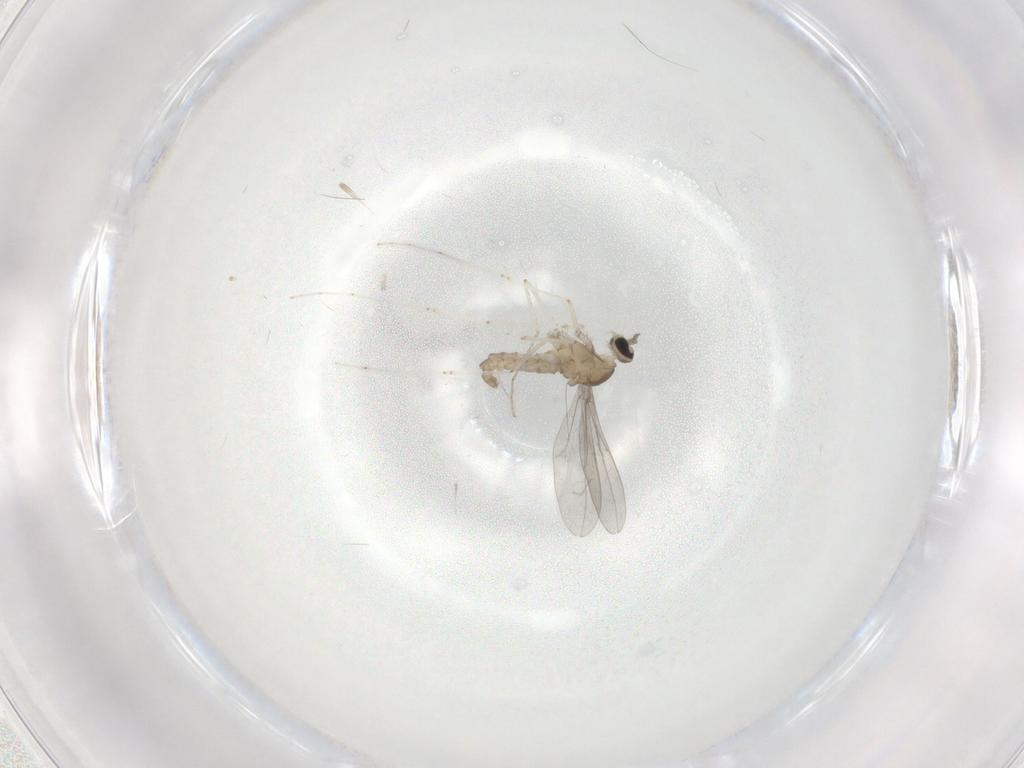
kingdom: Animalia
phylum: Arthropoda
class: Insecta
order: Diptera
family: Cecidomyiidae
